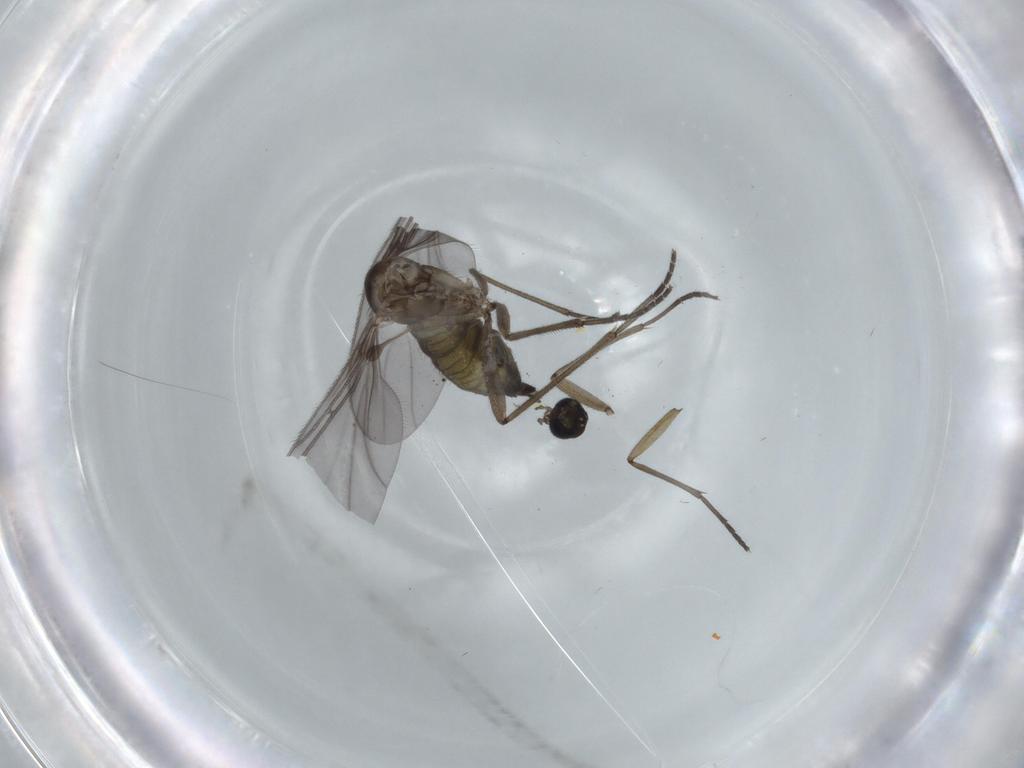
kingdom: Animalia
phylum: Arthropoda
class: Insecta
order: Diptera
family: Sciaridae
